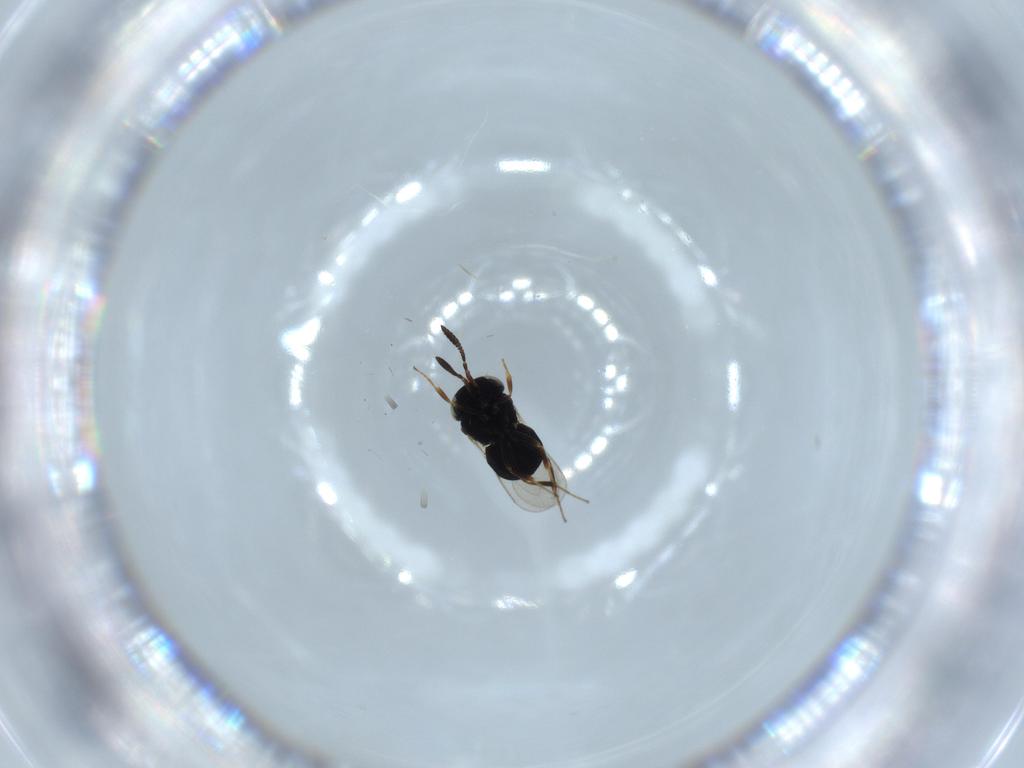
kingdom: Animalia
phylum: Arthropoda
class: Insecta
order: Hymenoptera
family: Scelionidae
